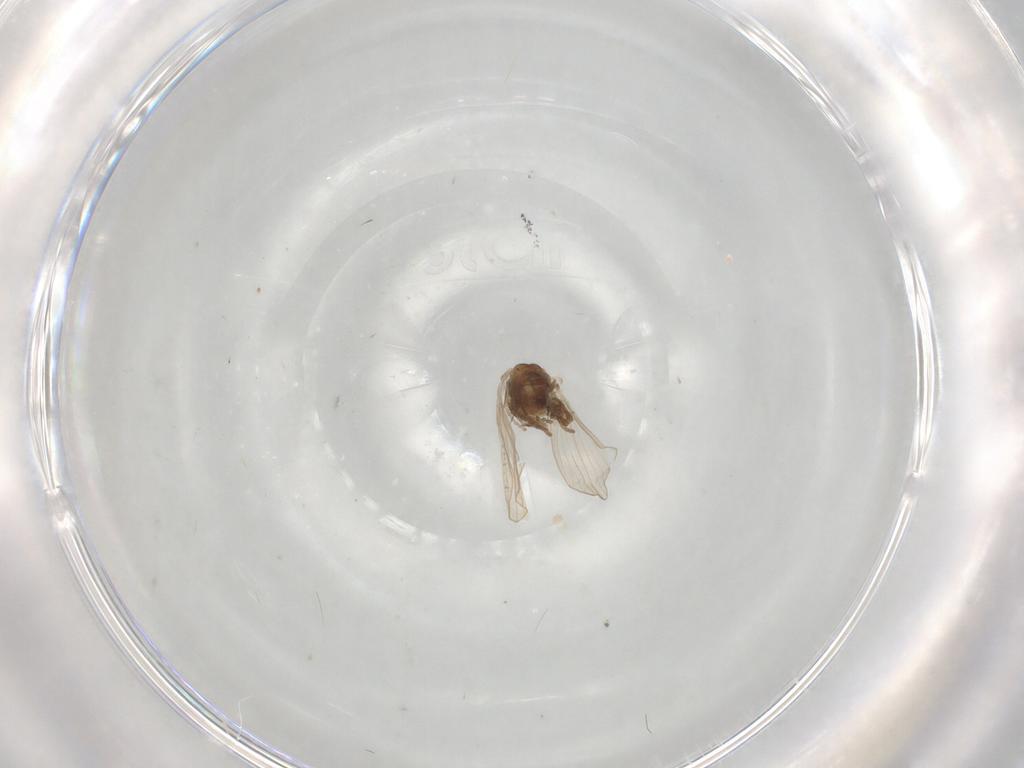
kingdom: Animalia
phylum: Arthropoda
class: Insecta
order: Diptera
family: Psychodidae
